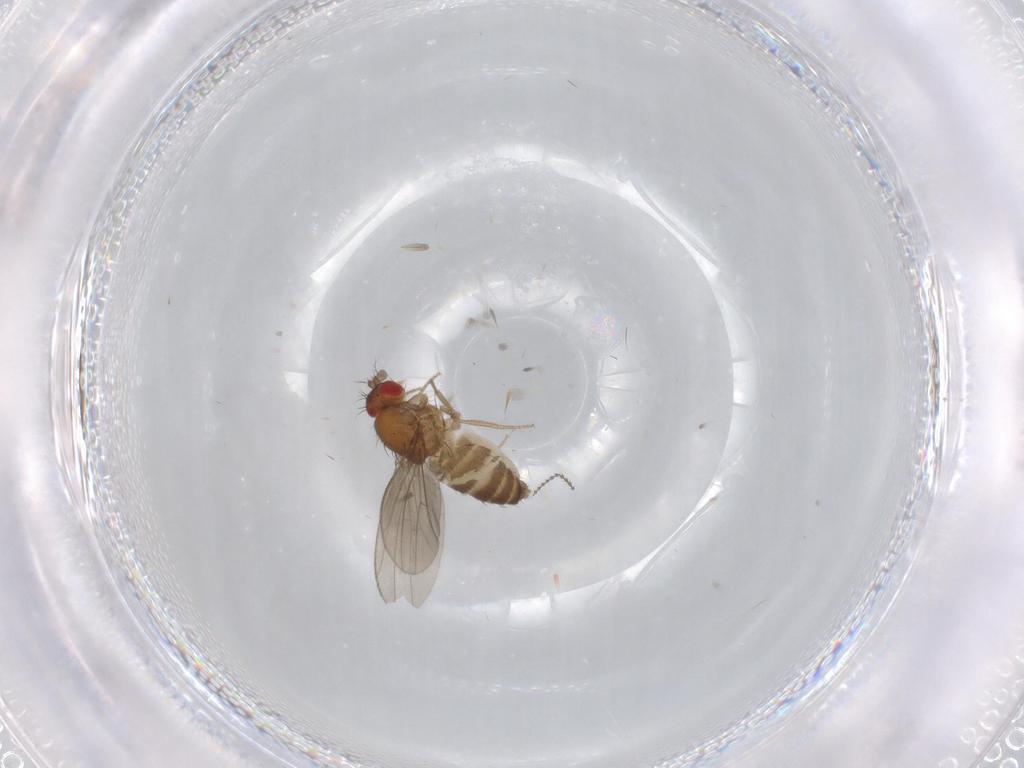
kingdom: Animalia
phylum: Arthropoda
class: Insecta
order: Diptera
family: Drosophilidae
